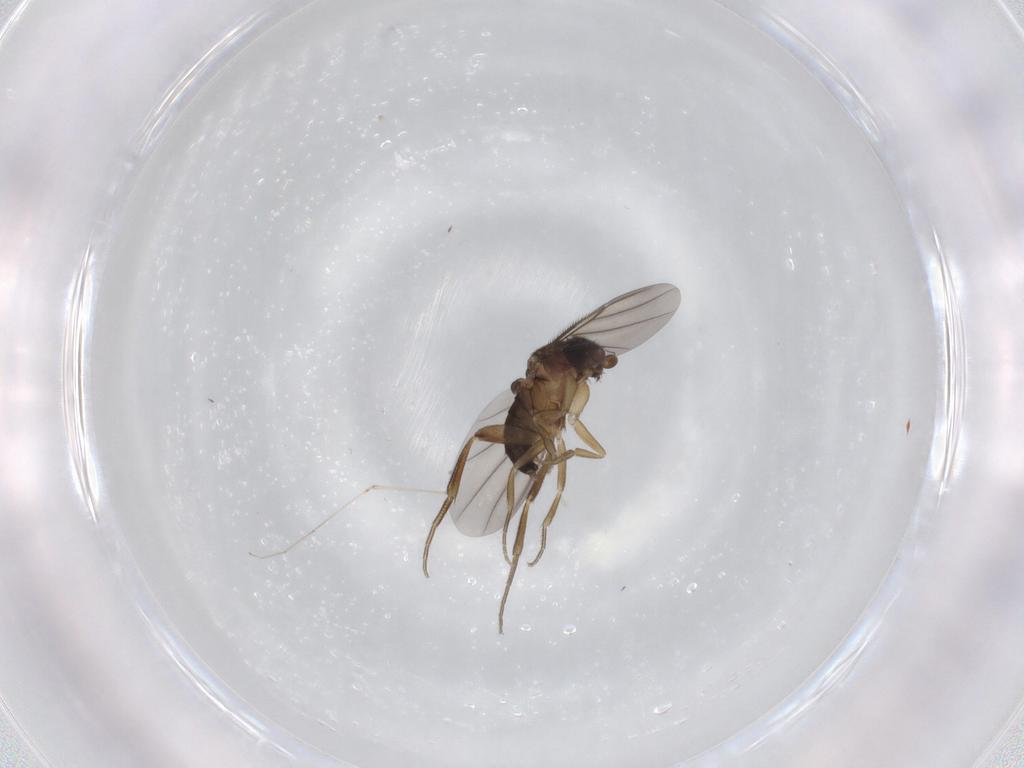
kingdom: Animalia
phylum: Arthropoda
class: Insecta
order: Diptera
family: Phoridae
